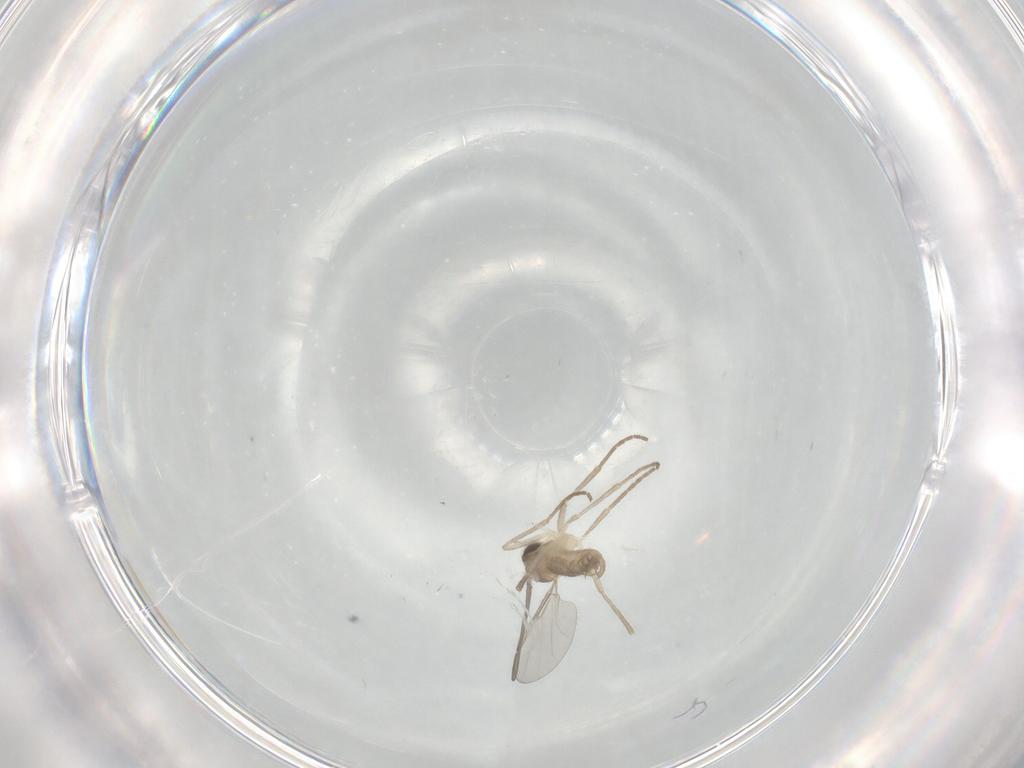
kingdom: Animalia
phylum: Arthropoda
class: Insecta
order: Diptera
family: Cecidomyiidae
